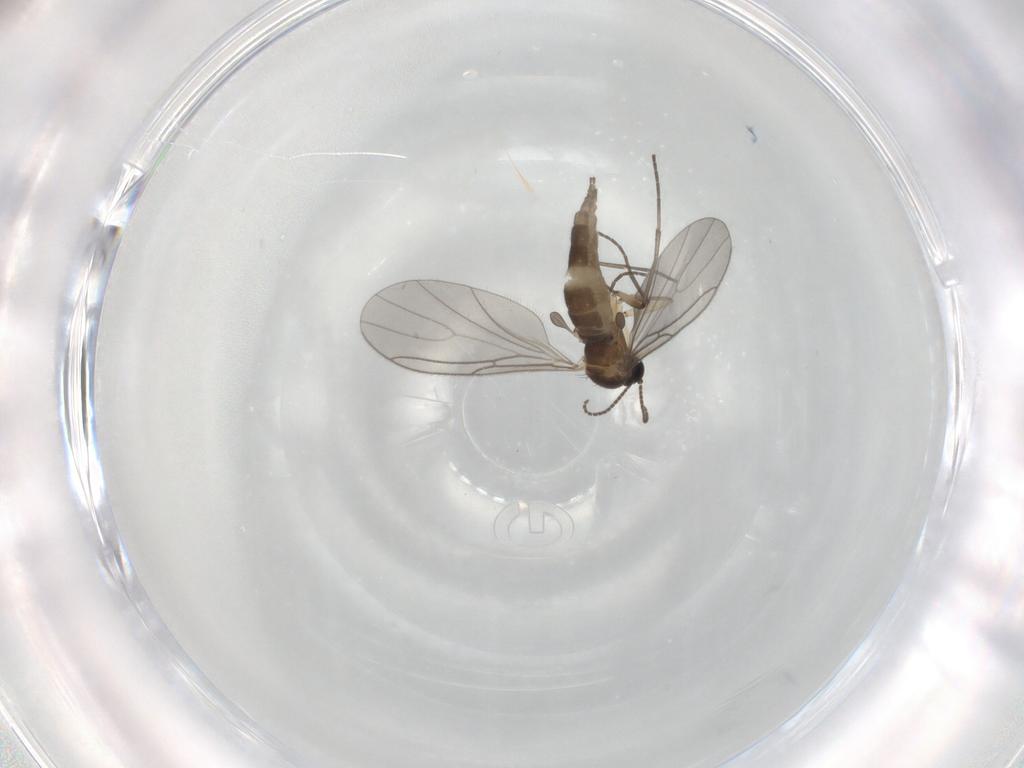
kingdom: Animalia
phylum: Arthropoda
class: Insecta
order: Diptera
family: Sciaridae
